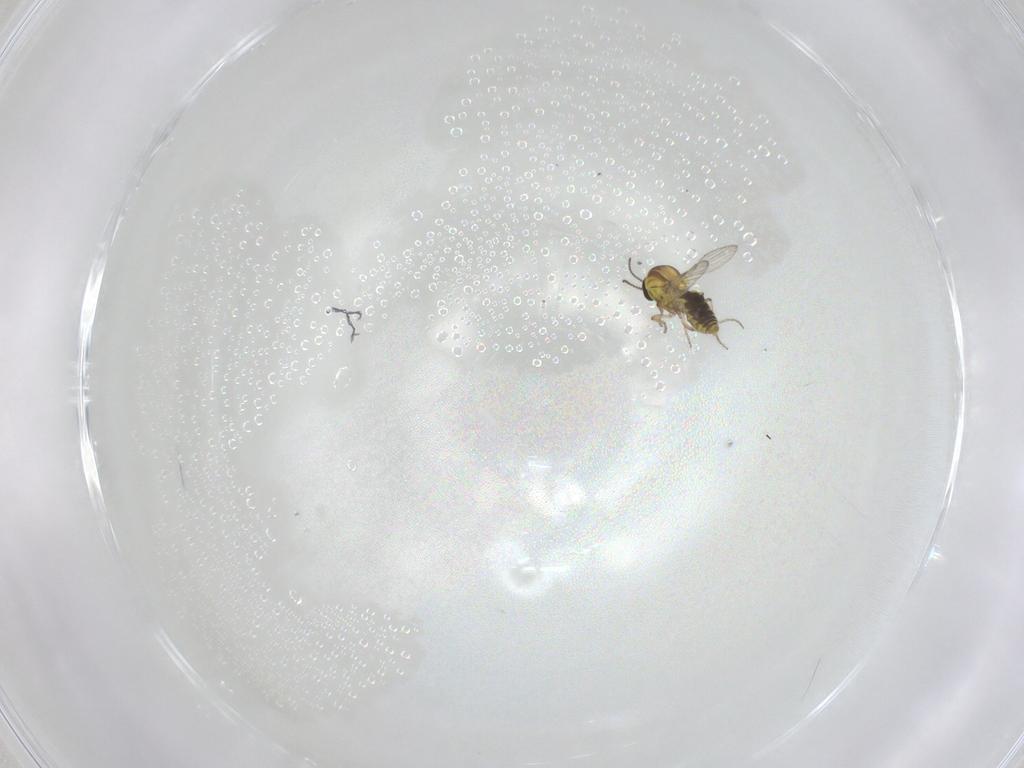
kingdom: Animalia
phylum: Arthropoda
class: Insecta
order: Diptera
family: Ceratopogonidae
